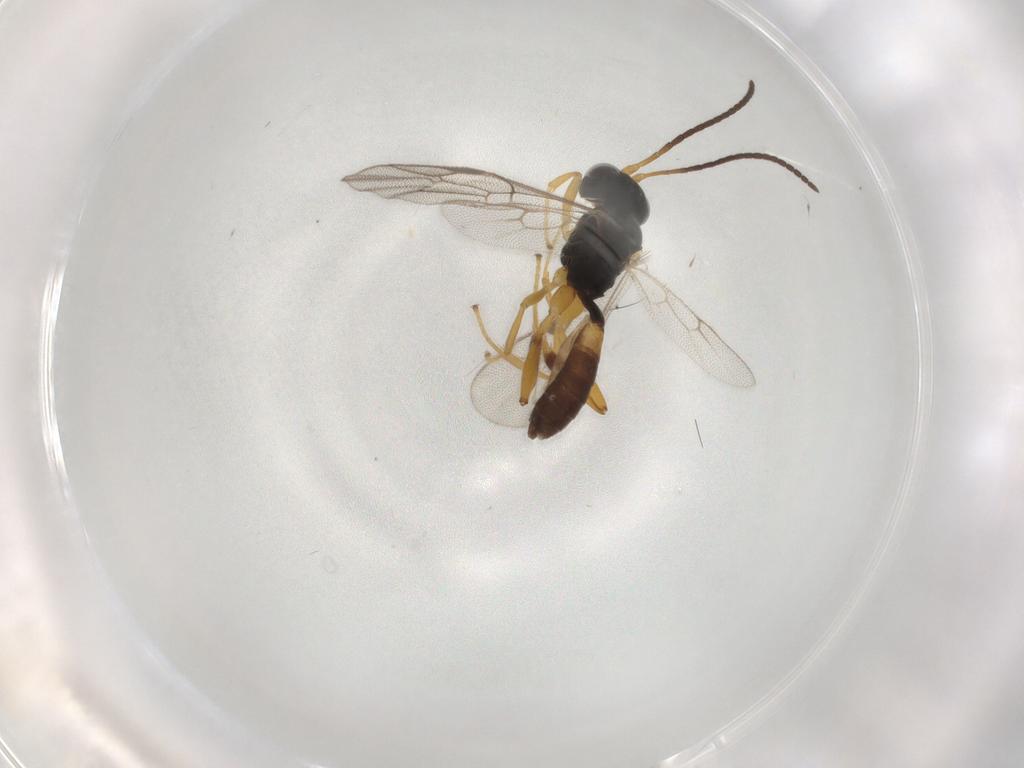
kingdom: Animalia
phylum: Arthropoda
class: Insecta
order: Hymenoptera
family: Ichneumonidae
